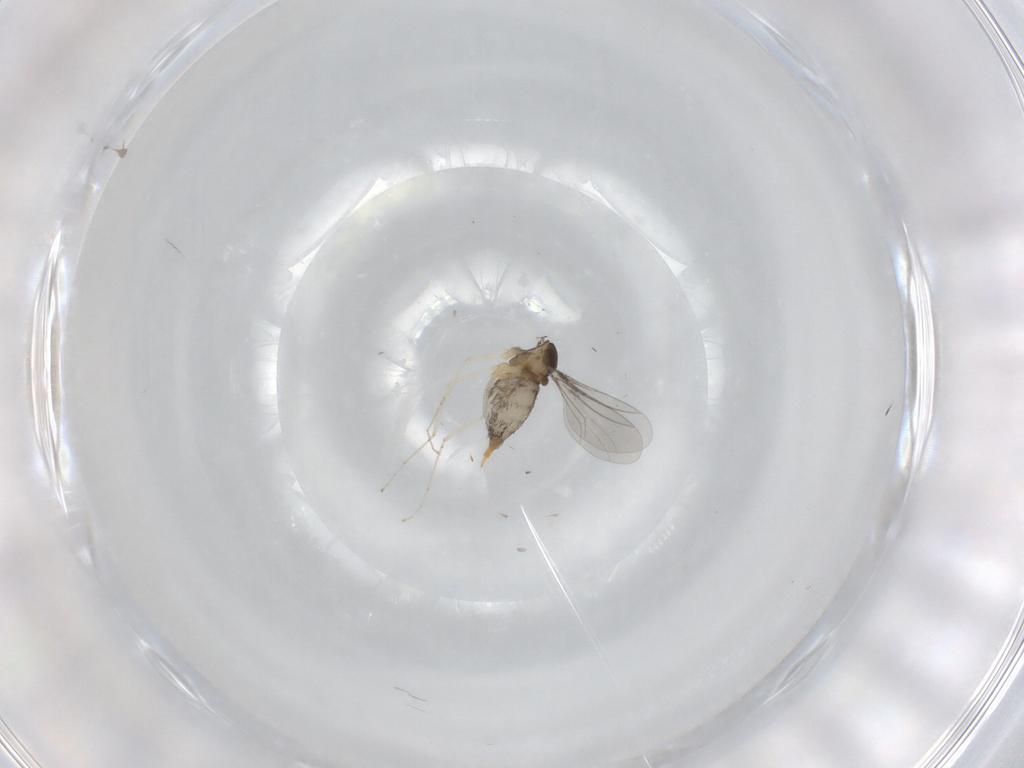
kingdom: Animalia
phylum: Arthropoda
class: Insecta
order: Diptera
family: Cecidomyiidae
